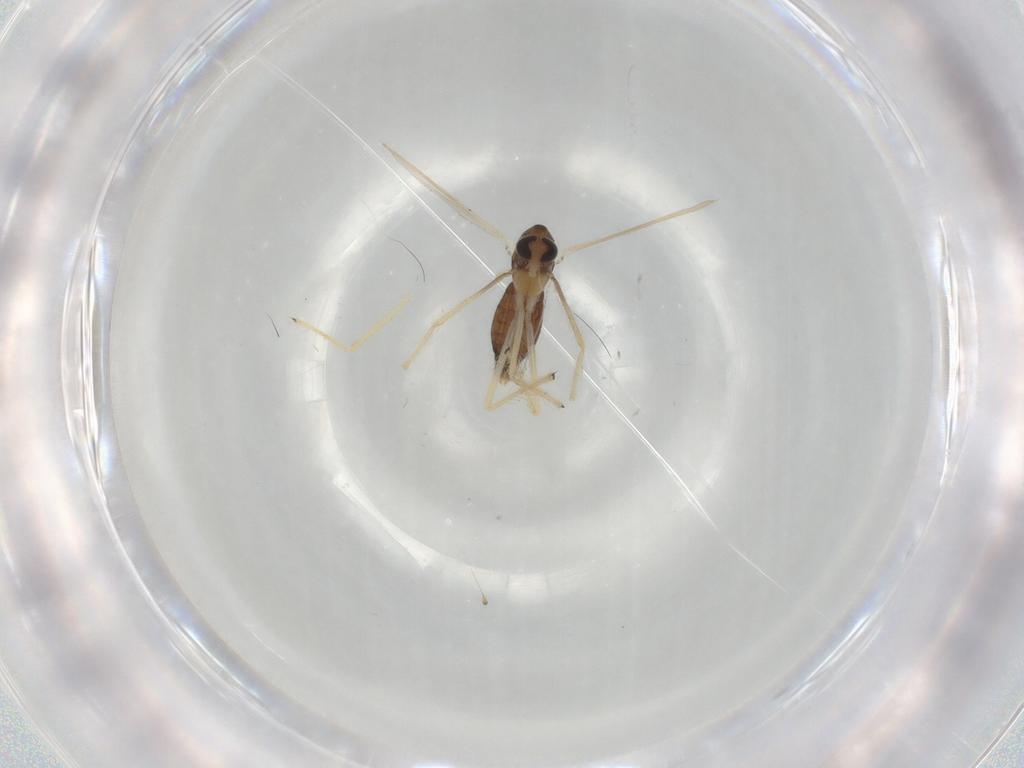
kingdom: Animalia
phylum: Arthropoda
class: Insecta
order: Diptera
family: Chironomidae
